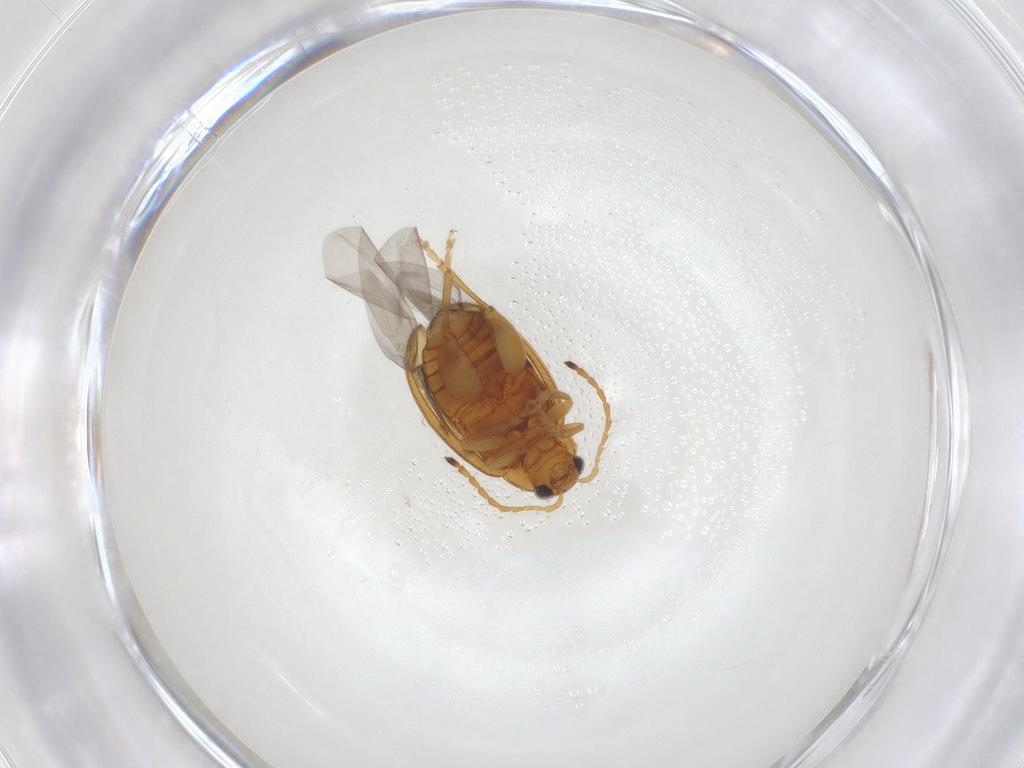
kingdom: Animalia
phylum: Arthropoda
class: Insecta
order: Coleoptera
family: Chrysomelidae
